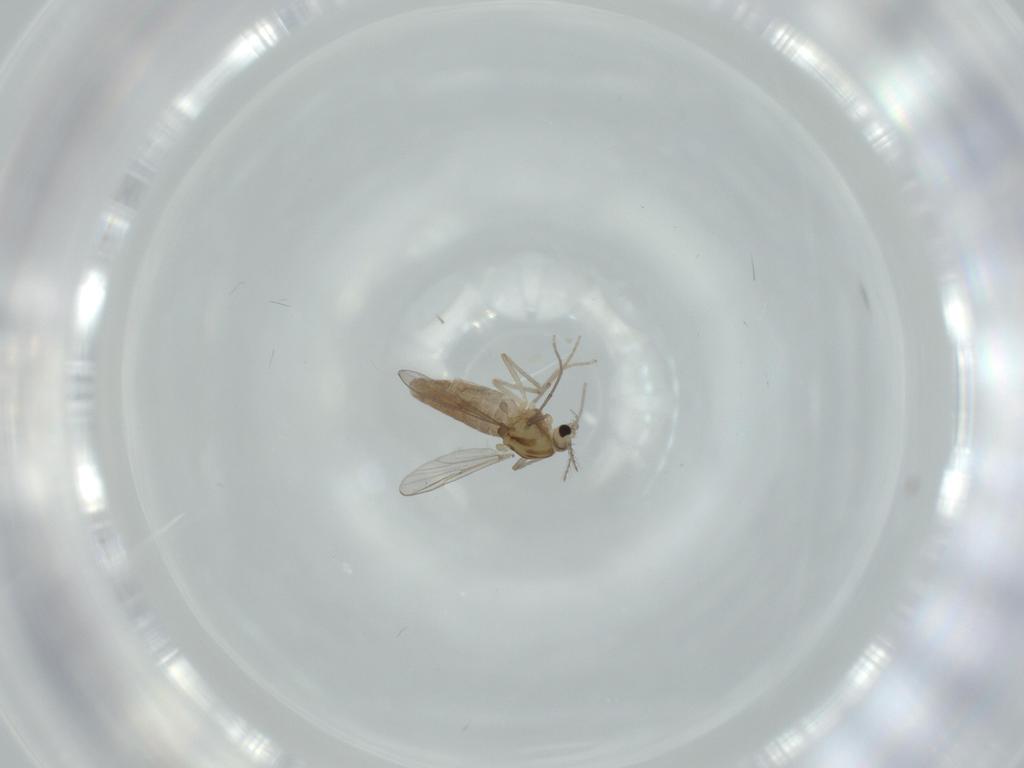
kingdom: Animalia
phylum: Arthropoda
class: Insecta
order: Diptera
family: Chironomidae
